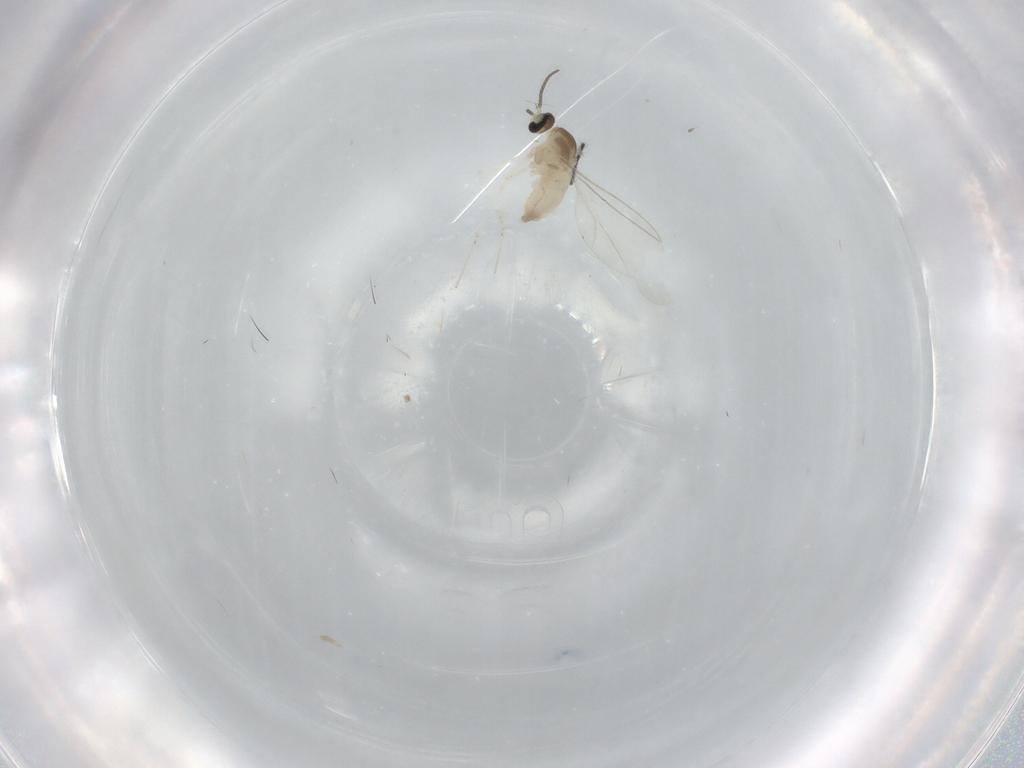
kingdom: Animalia
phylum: Arthropoda
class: Insecta
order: Diptera
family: Cecidomyiidae
